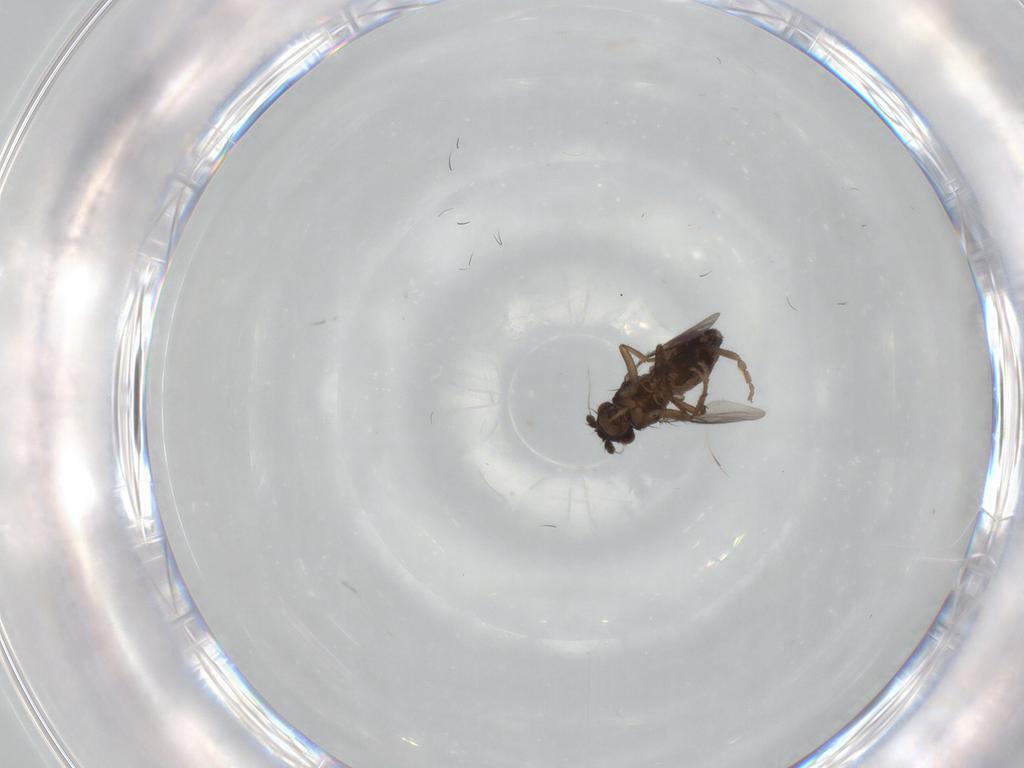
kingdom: Animalia
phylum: Arthropoda
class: Insecta
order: Diptera
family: Sphaeroceridae
